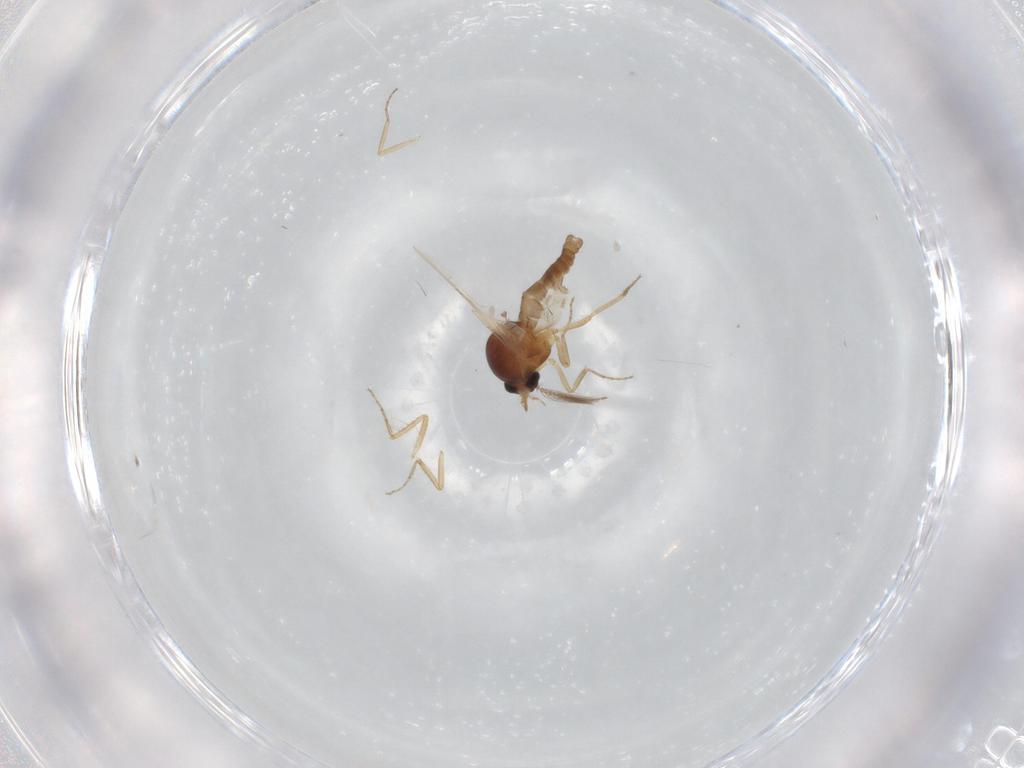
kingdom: Animalia
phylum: Arthropoda
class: Insecta
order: Diptera
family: Ceratopogonidae
